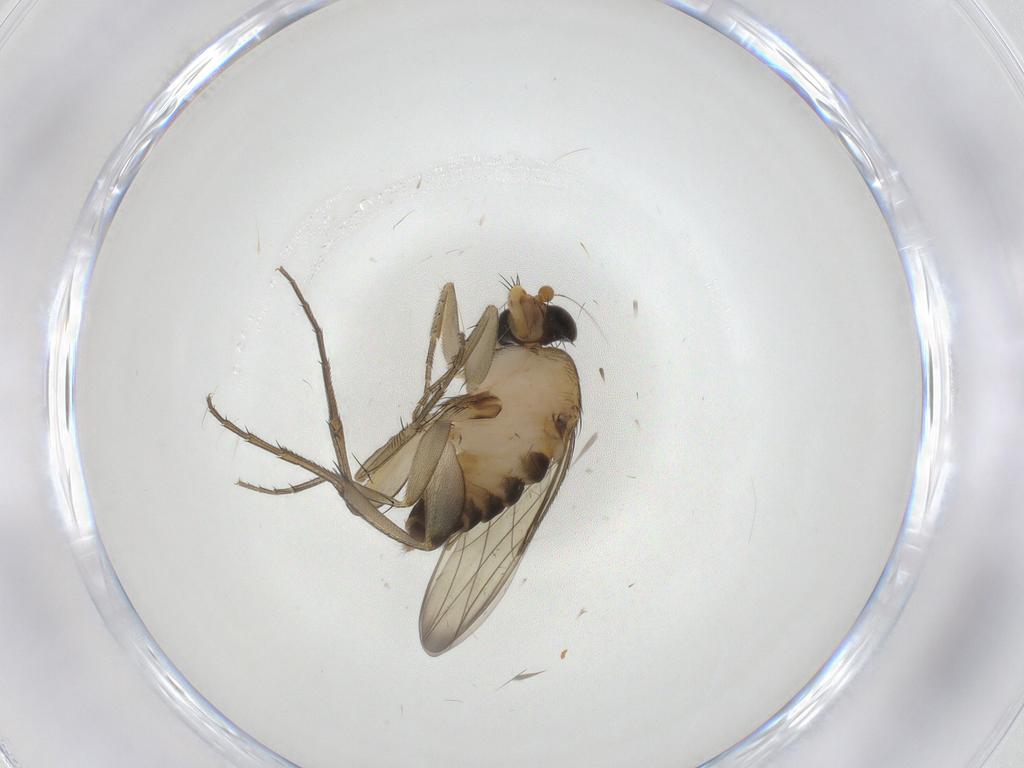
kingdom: Animalia
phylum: Arthropoda
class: Insecta
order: Diptera
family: Phoridae
